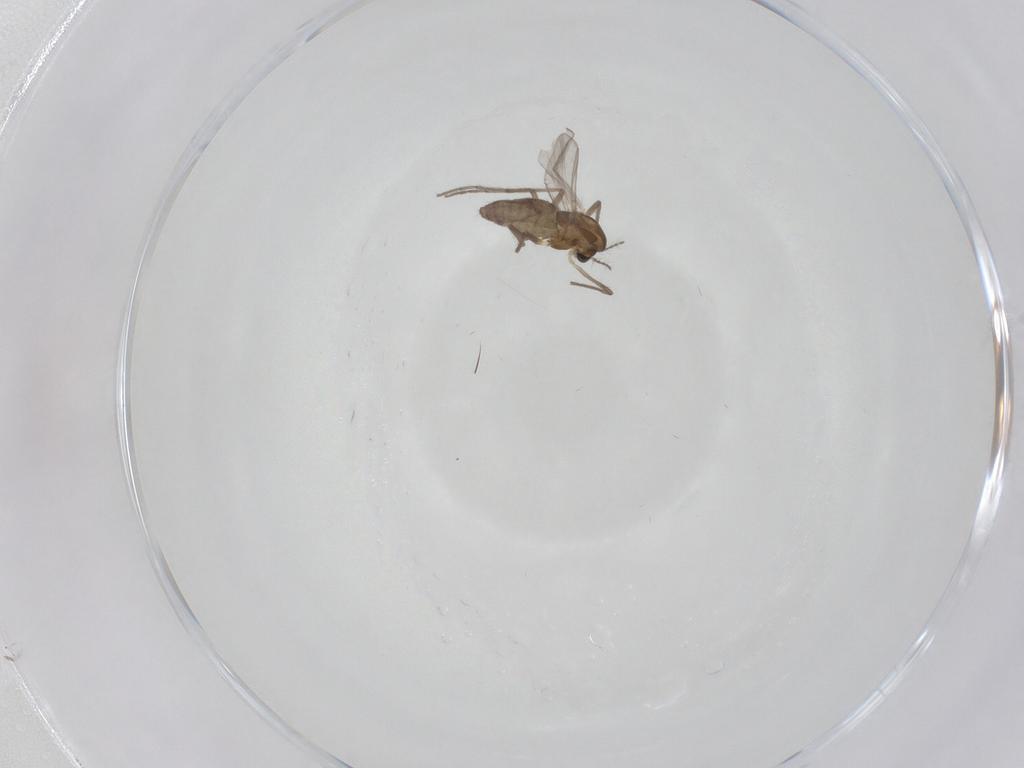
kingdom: Animalia
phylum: Arthropoda
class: Insecta
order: Diptera
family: Chironomidae
